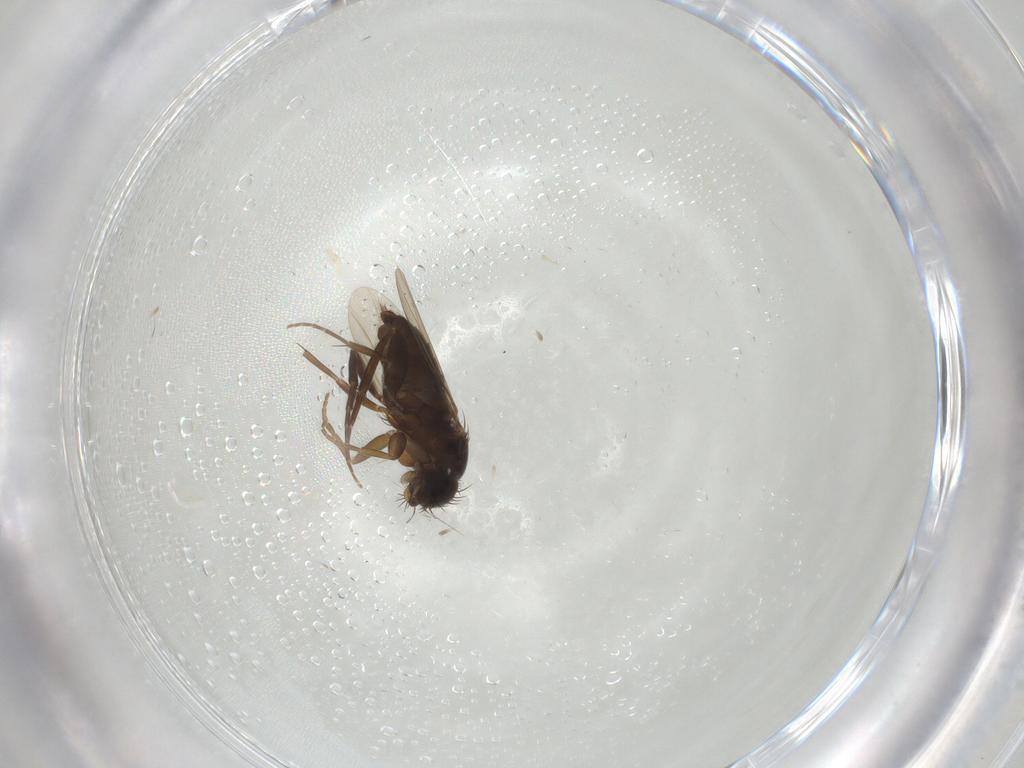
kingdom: Animalia
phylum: Arthropoda
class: Insecta
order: Diptera
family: Phoridae
